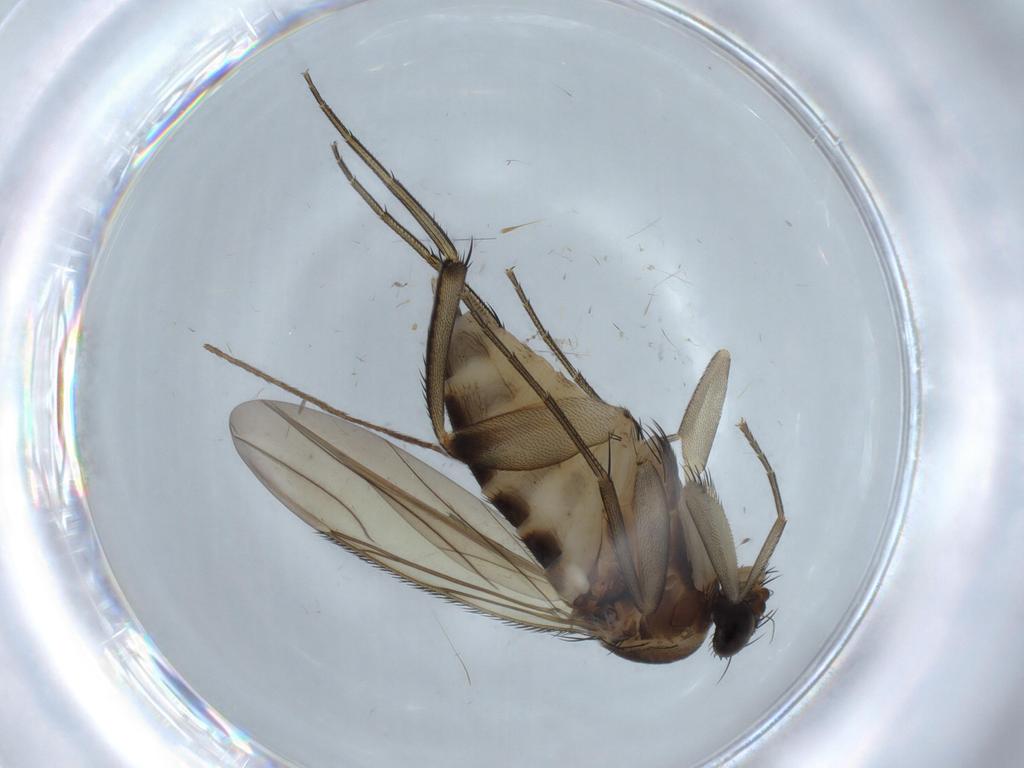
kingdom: Animalia
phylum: Arthropoda
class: Insecta
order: Diptera
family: Phoridae
